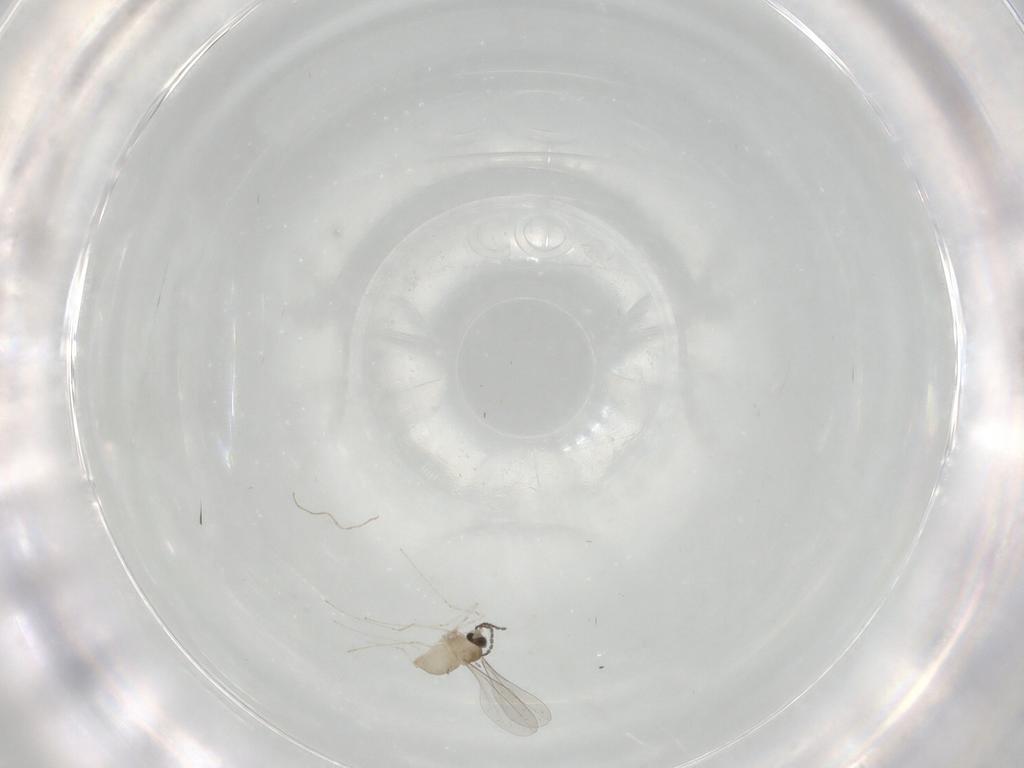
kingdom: Animalia
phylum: Arthropoda
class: Insecta
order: Diptera
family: Cecidomyiidae
